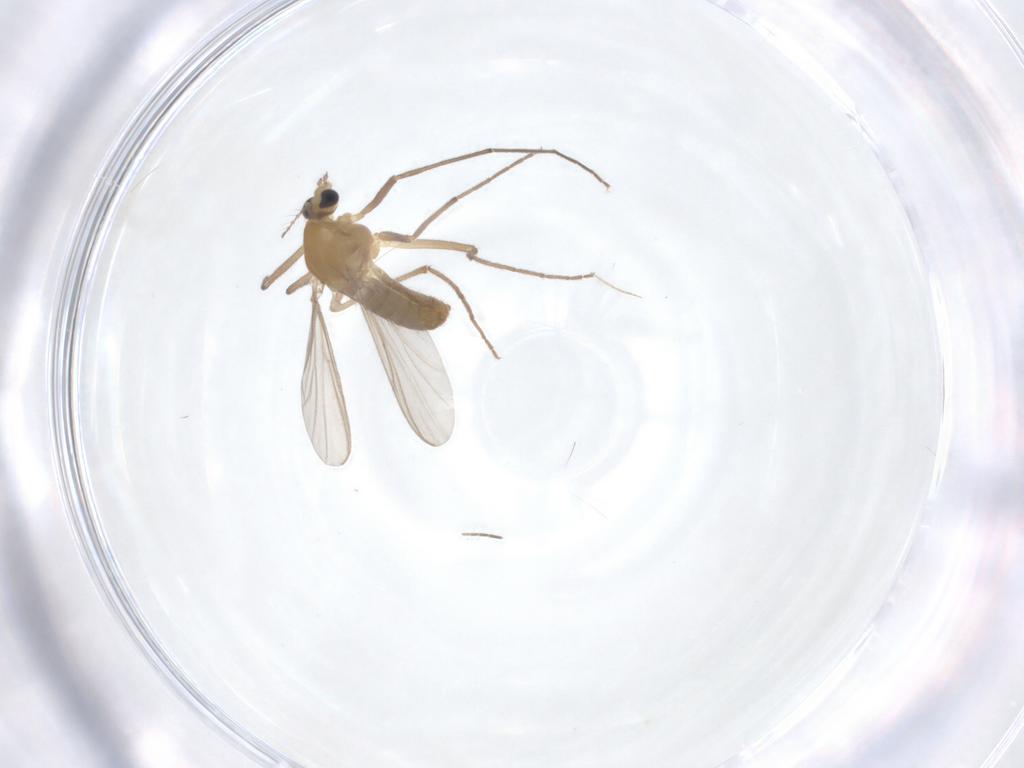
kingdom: Animalia
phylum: Arthropoda
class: Insecta
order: Diptera
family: Chironomidae
